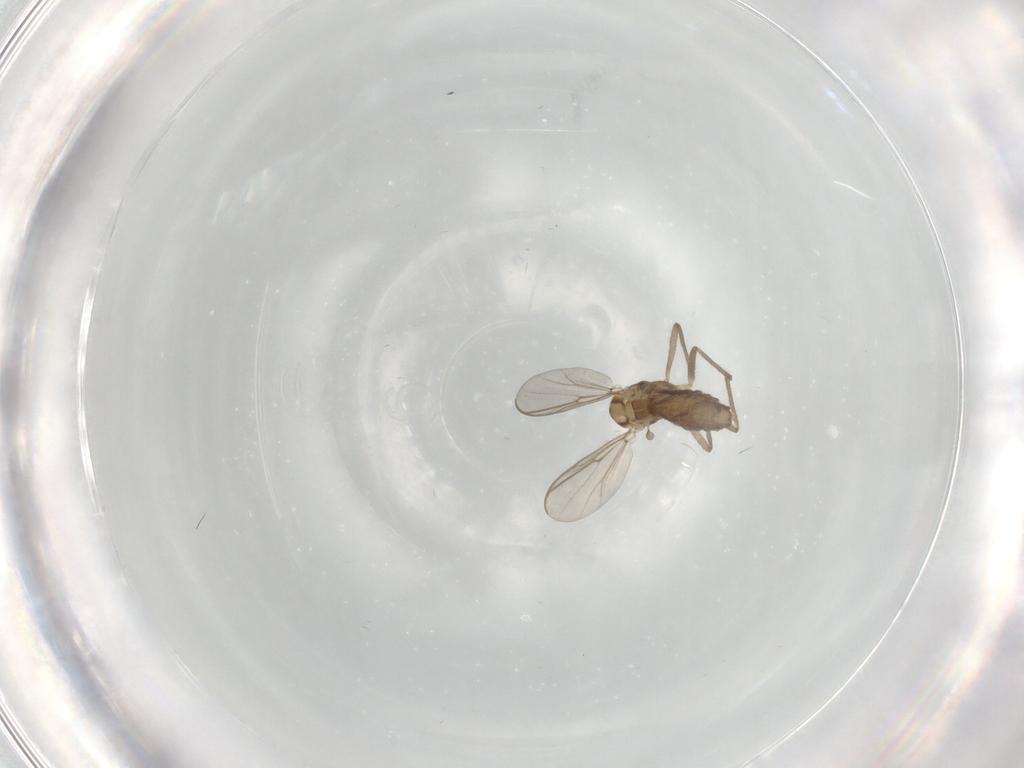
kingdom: Animalia
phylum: Arthropoda
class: Insecta
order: Diptera
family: Chironomidae
